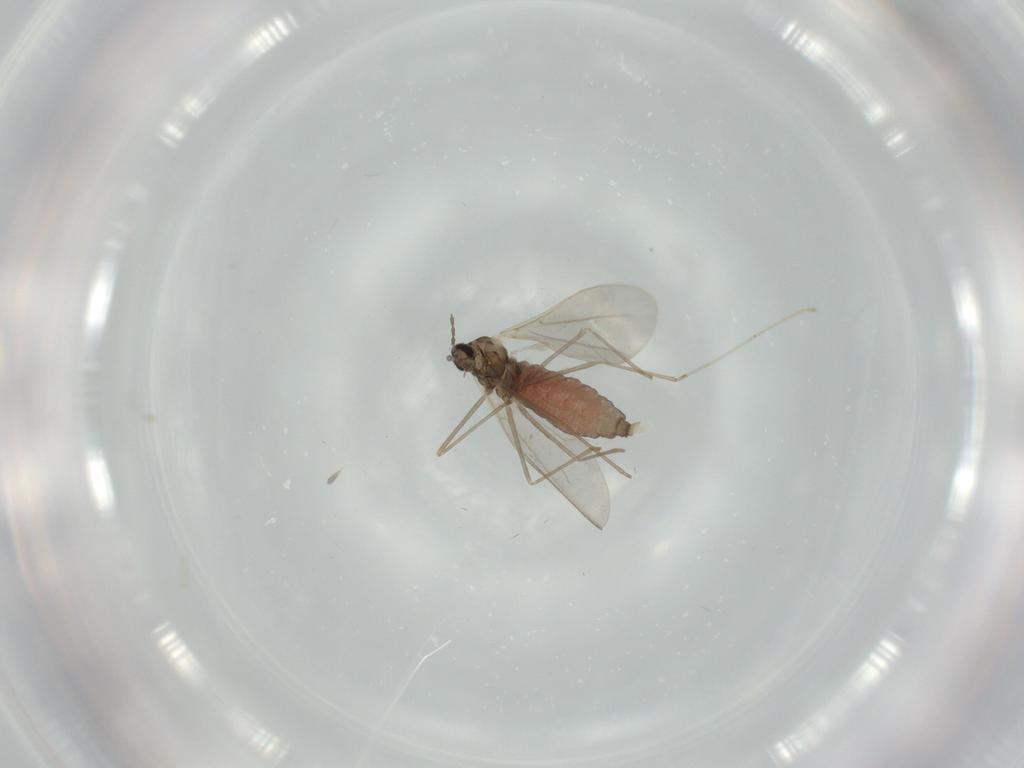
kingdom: Animalia
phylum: Arthropoda
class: Insecta
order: Diptera
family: Cecidomyiidae
